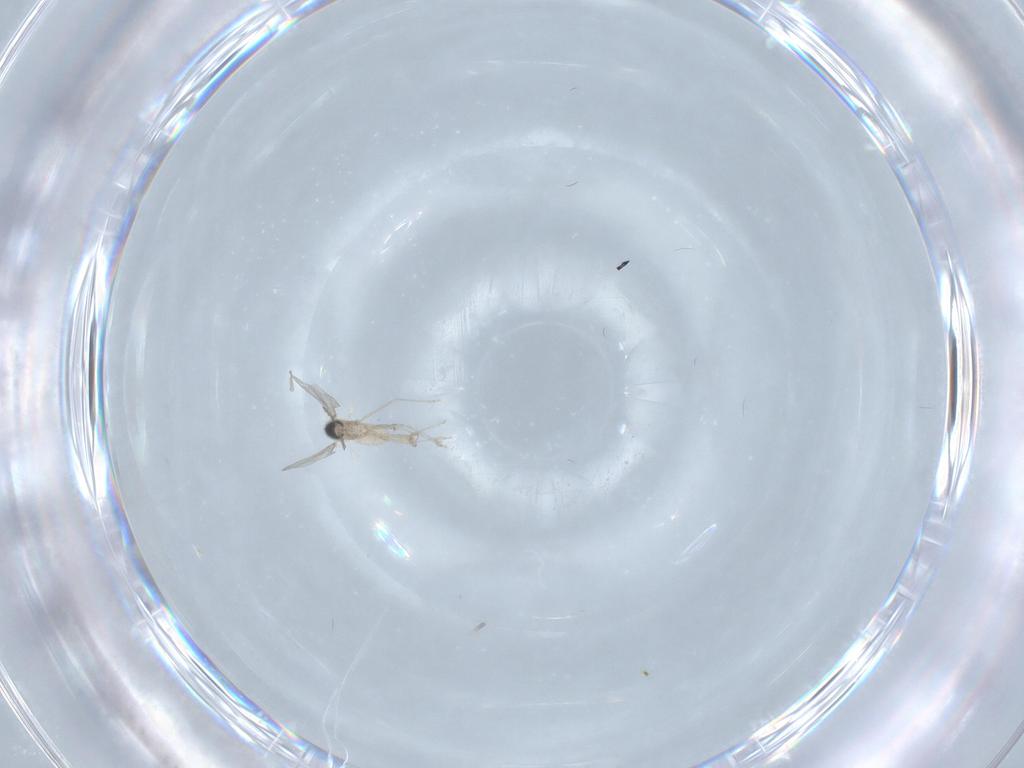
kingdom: Animalia
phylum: Arthropoda
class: Insecta
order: Diptera
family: Cecidomyiidae
